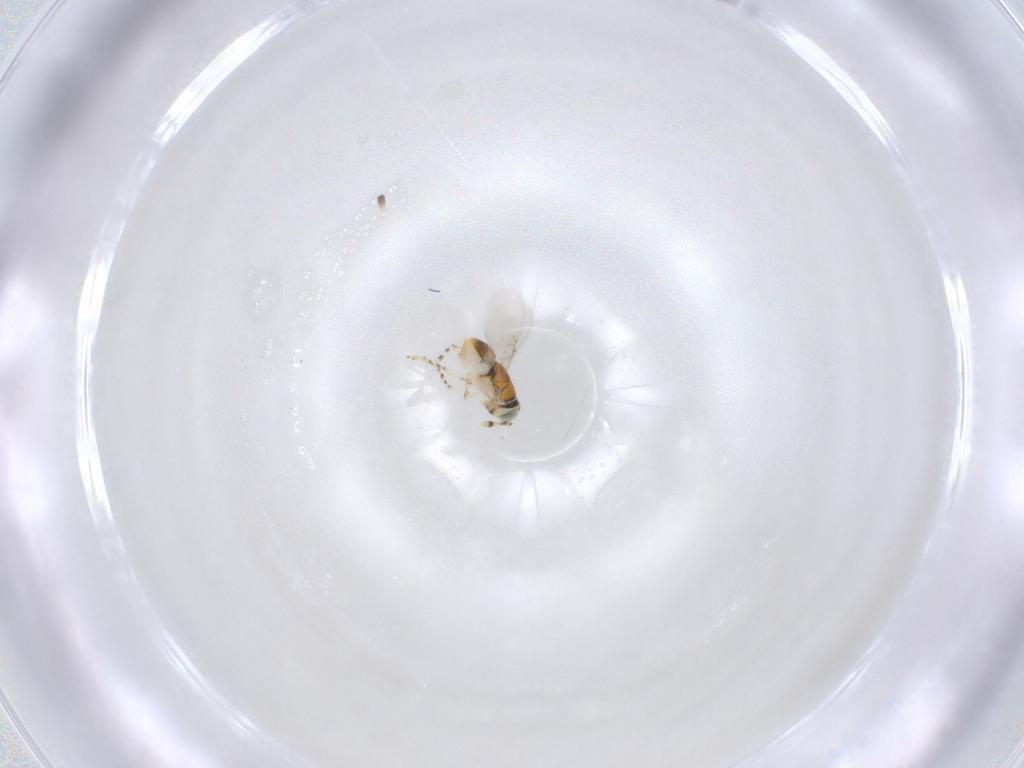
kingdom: Animalia
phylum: Arthropoda
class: Insecta
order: Hymenoptera
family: Encyrtidae
